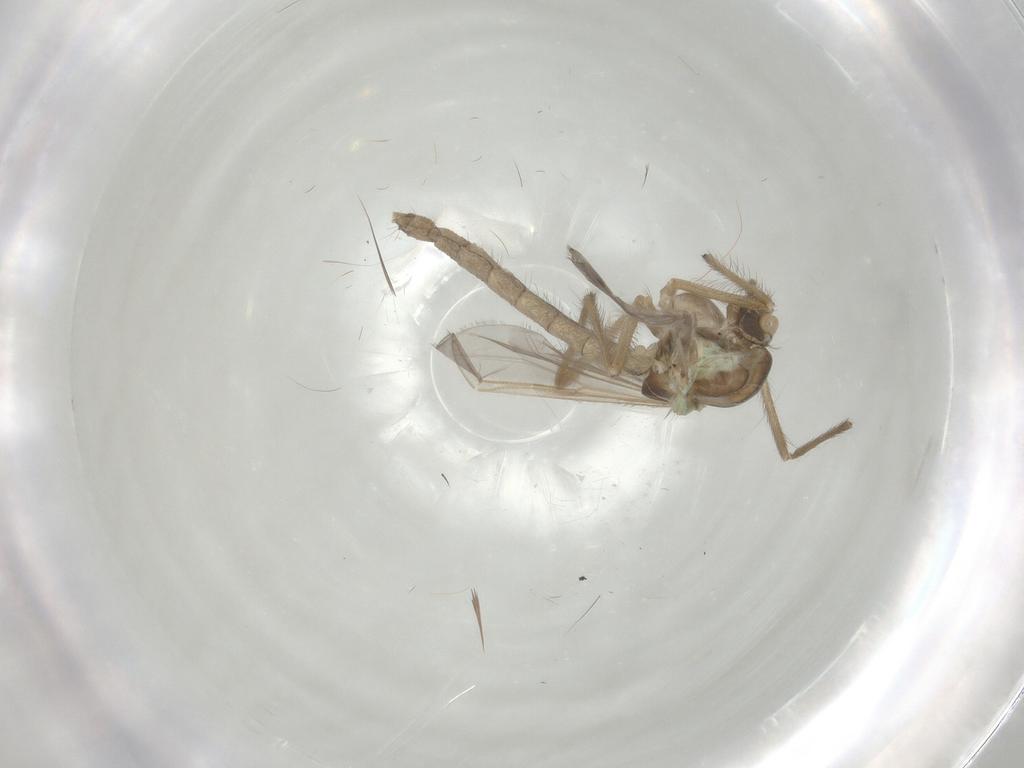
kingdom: Animalia
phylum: Arthropoda
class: Insecta
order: Diptera
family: Chironomidae
